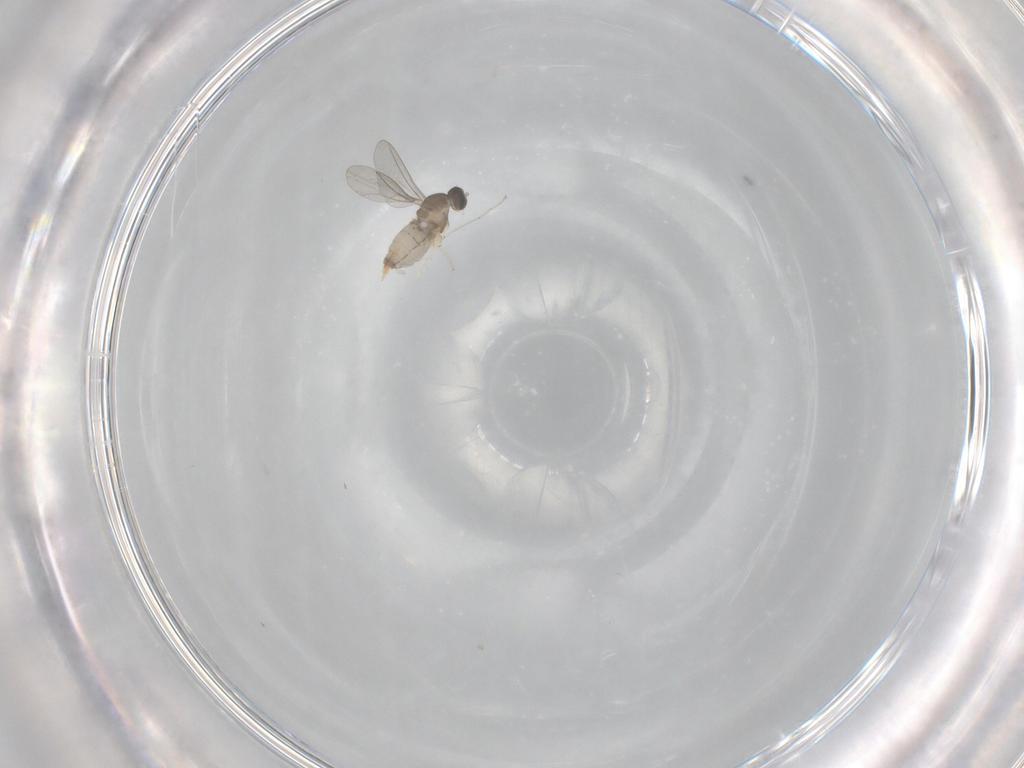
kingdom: Animalia
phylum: Arthropoda
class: Insecta
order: Diptera
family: Cecidomyiidae
